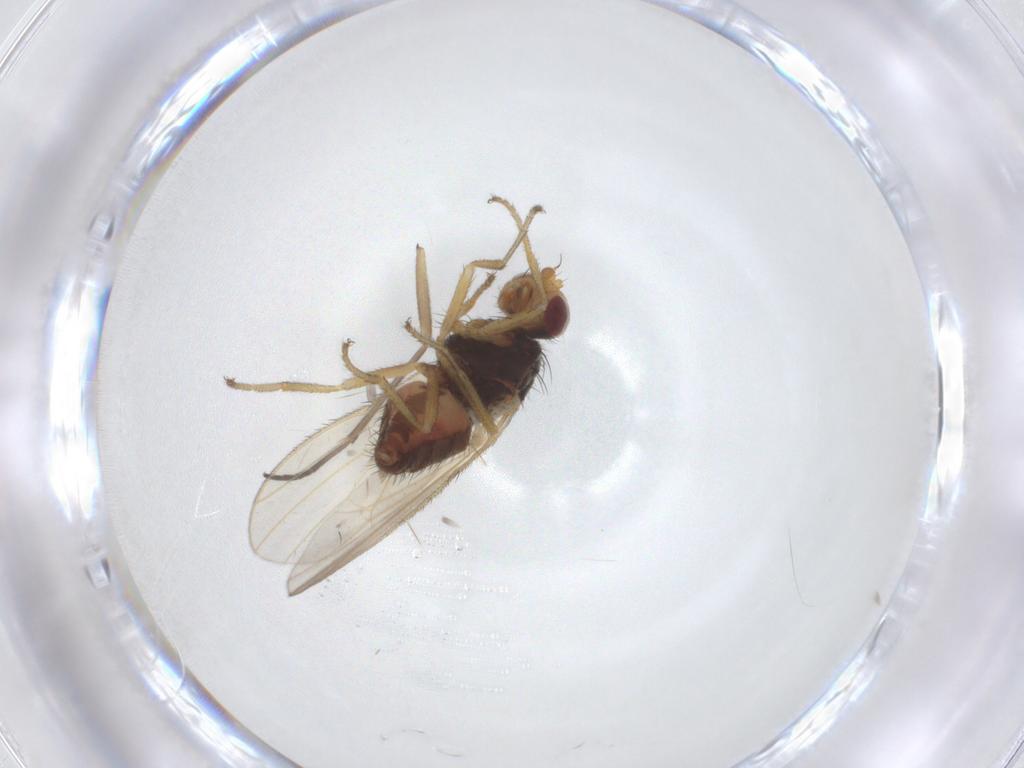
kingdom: Animalia
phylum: Arthropoda
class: Insecta
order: Diptera
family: Heleomyzidae
